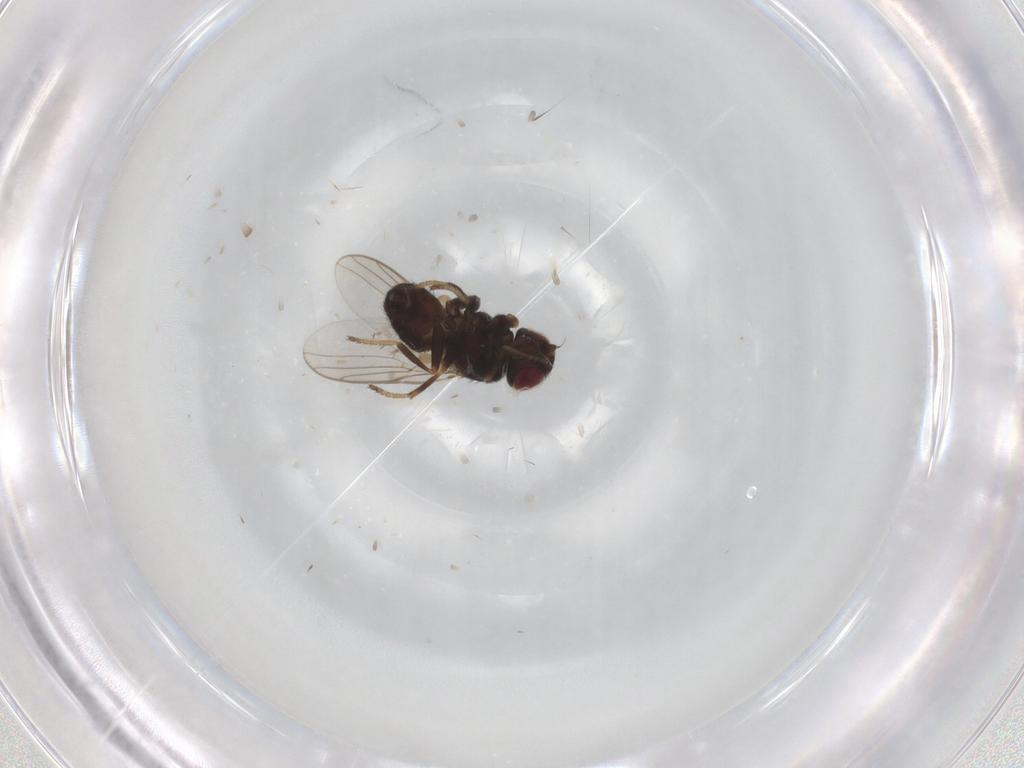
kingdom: Animalia
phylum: Arthropoda
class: Insecta
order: Diptera
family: Chloropidae
